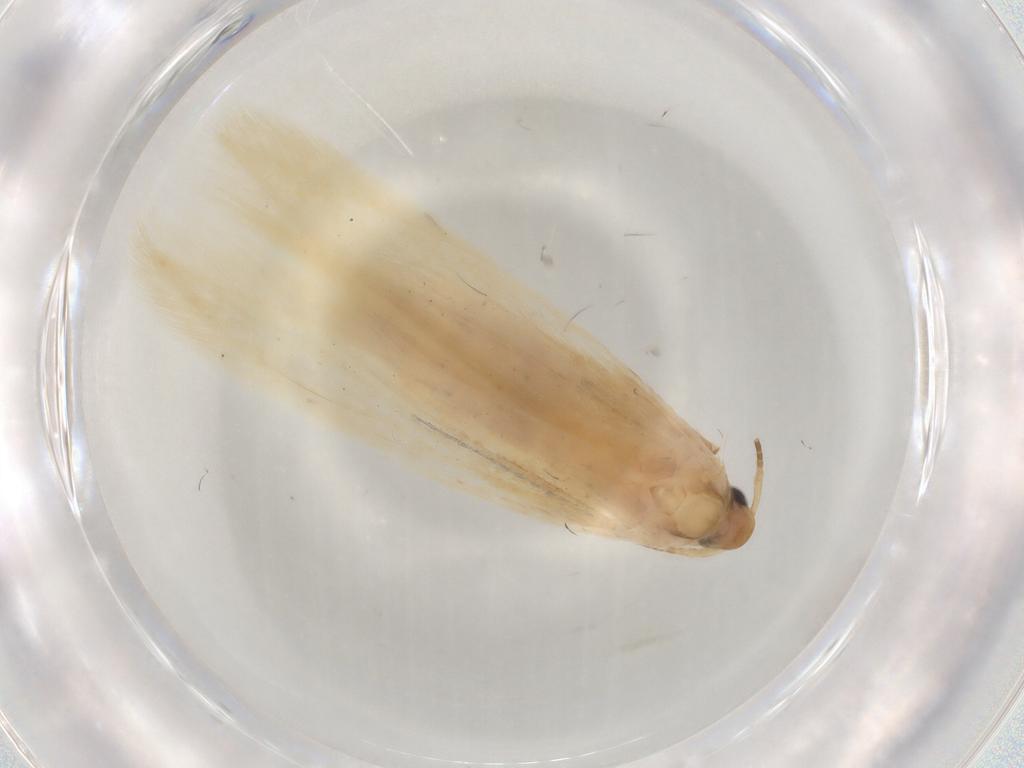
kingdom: Animalia
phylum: Arthropoda
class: Insecta
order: Lepidoptera
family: Coleophoridae
